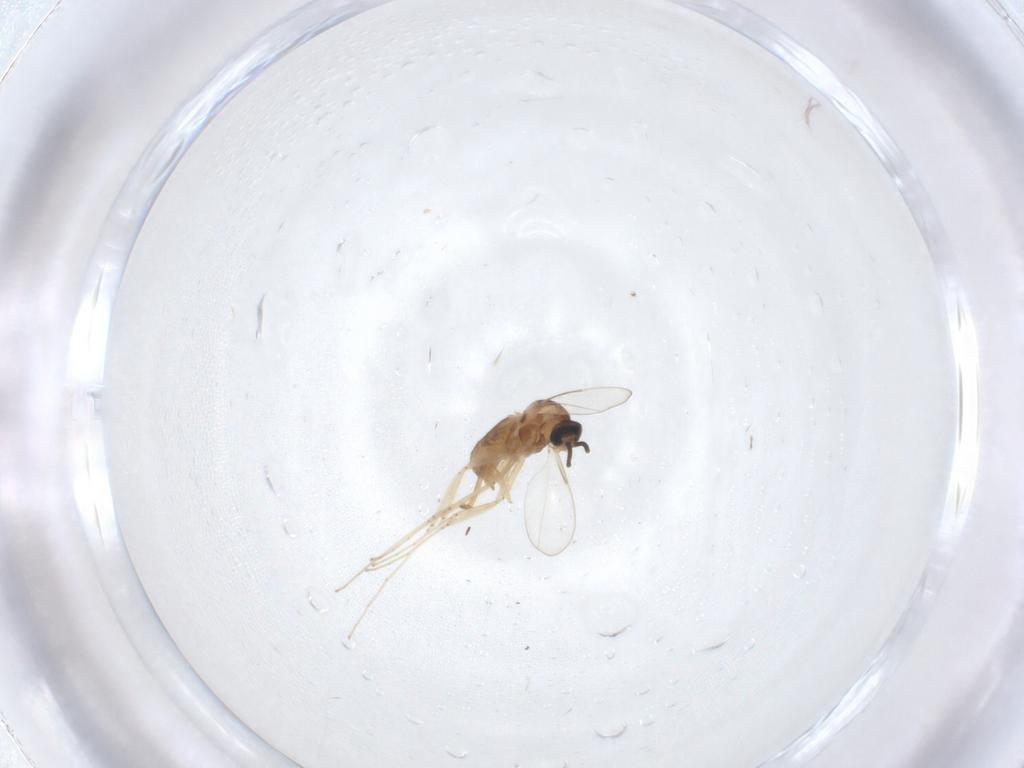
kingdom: Animalia
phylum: Arthropoda
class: Insecta
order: Diptera
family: Cecidomyiidae
